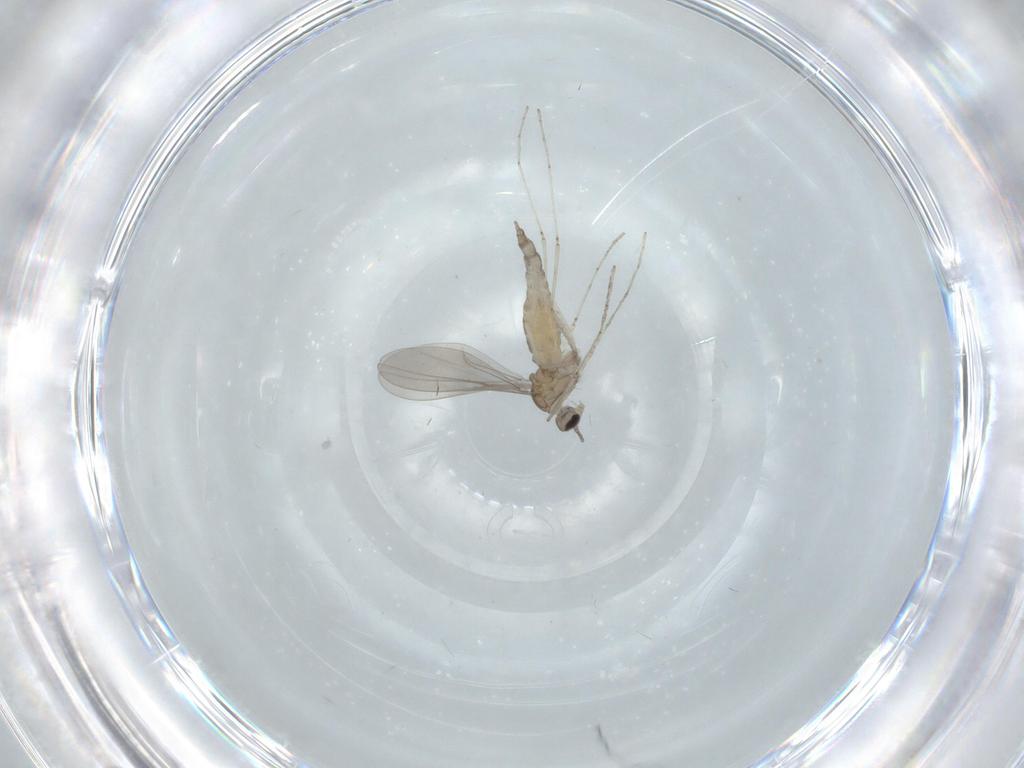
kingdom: Animalia
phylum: Arthropoda
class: Insecta
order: Diptera
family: Cecidomyiidae
